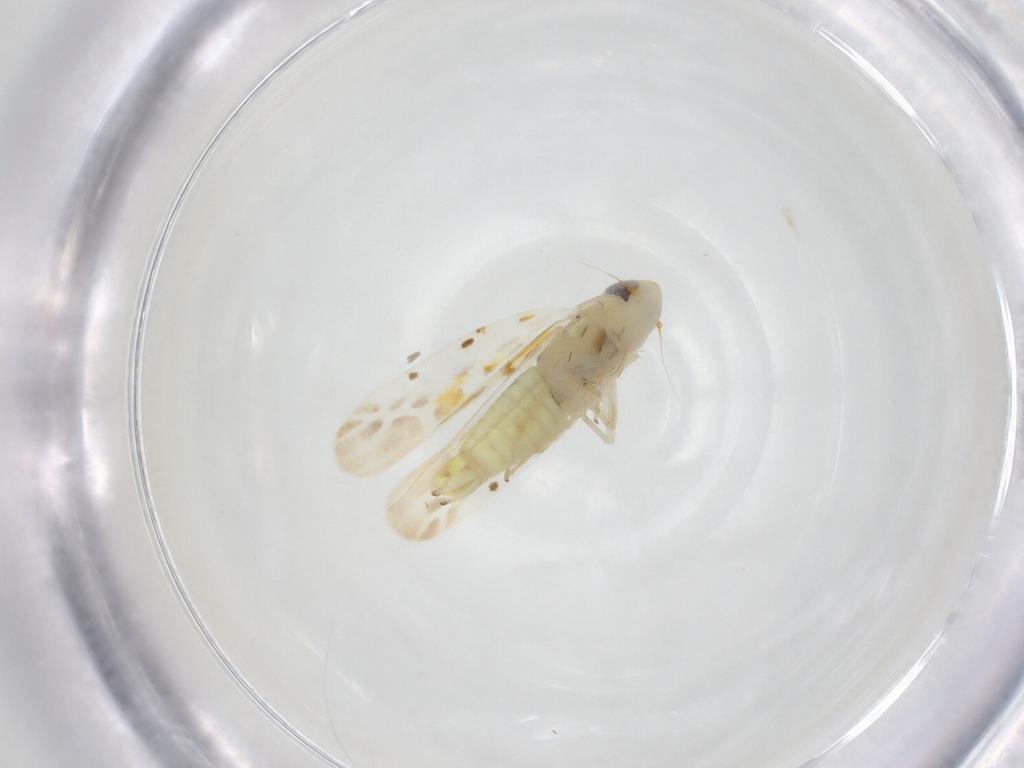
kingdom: Animalia
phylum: Arthropoda
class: Insecta
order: Hemiptera
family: Cicadellidae
